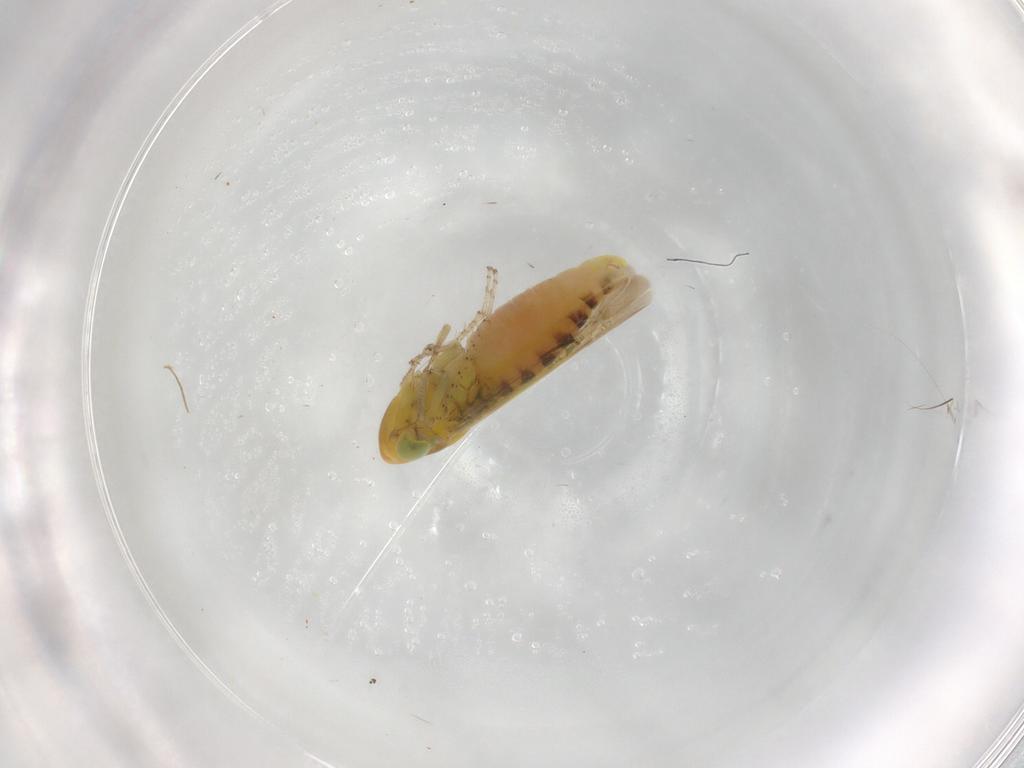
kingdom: Animalia
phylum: Arthropoda
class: Insecta
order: Hemiptera
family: Cicadellidae
